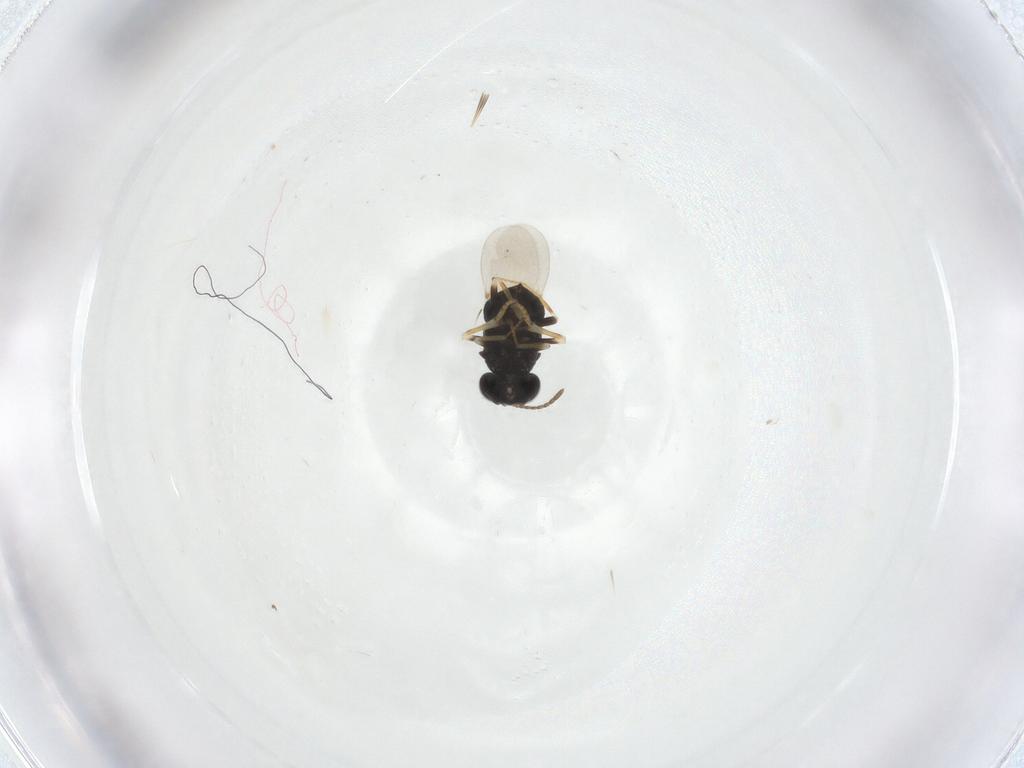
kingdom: Animalia
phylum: Arthropoda
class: Insecta
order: Hymenoptera
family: Encyrtidae
